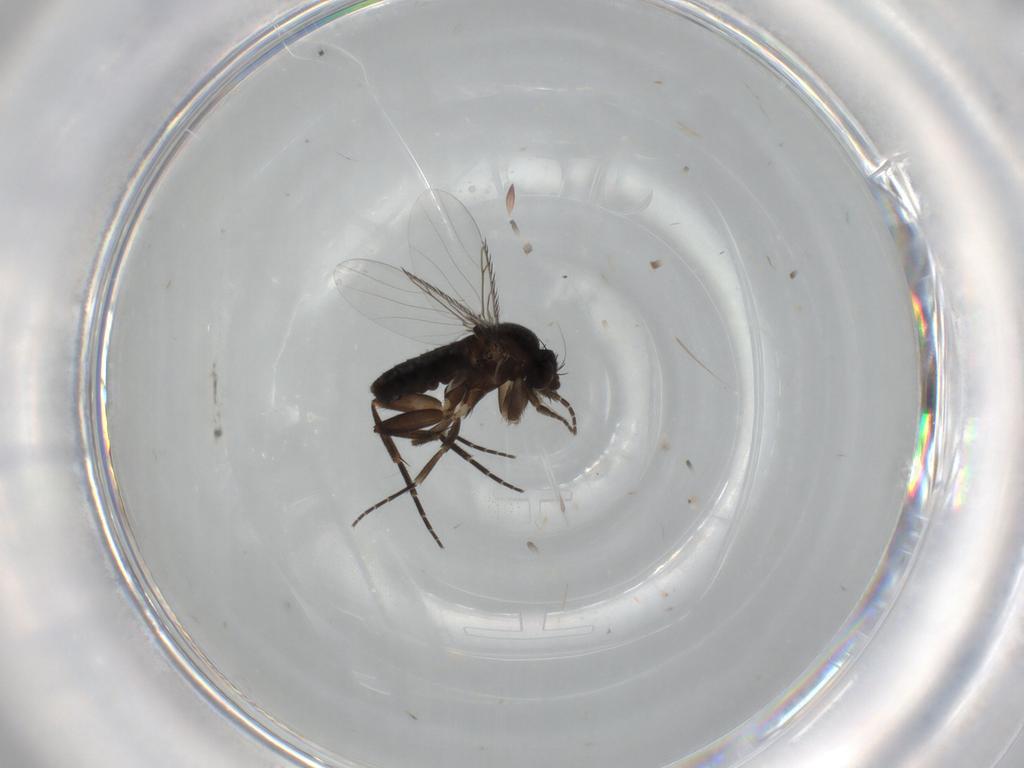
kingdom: Animalia
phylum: Arthropoda
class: Insecta
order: Diptera
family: Phoridae
